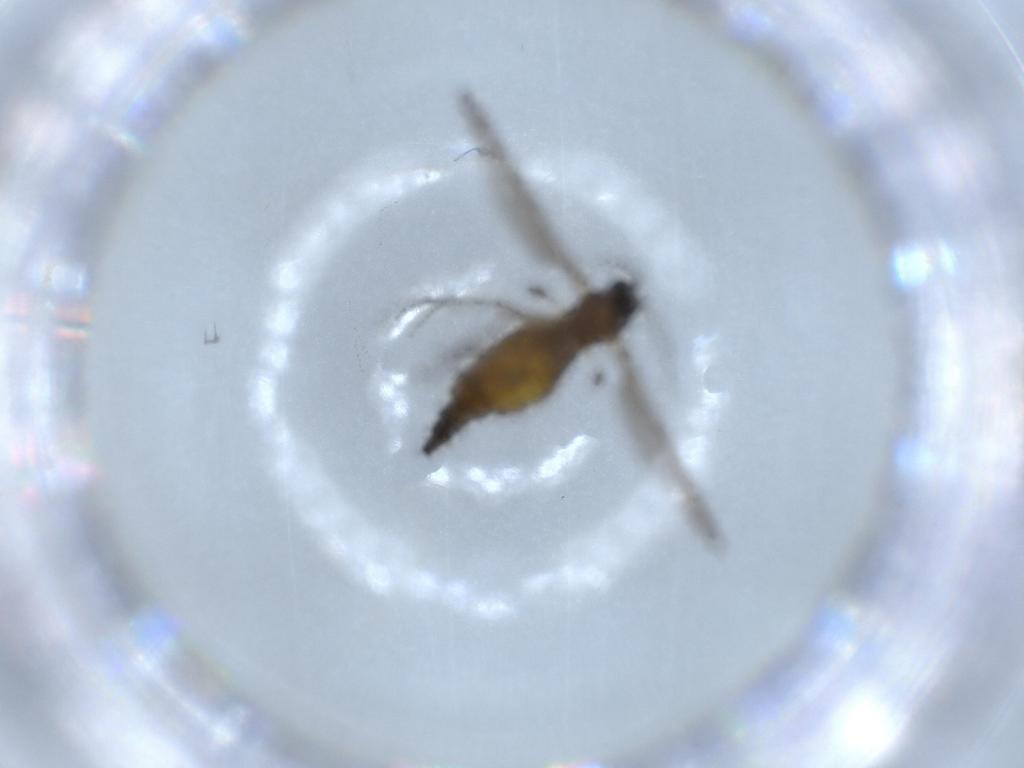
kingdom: Animalia
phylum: Arthropoda
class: Insecta
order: Diptera
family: Sciaridae
